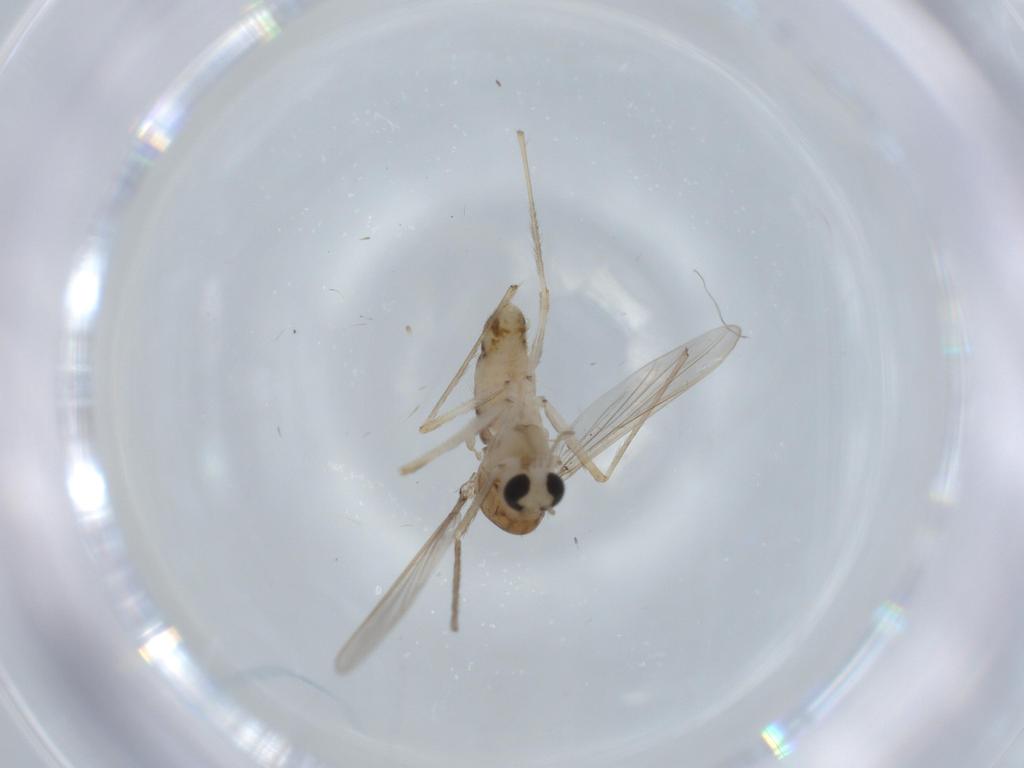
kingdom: Animalia
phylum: Arthropoda
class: Insecta
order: Diptera
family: Chironomidae
